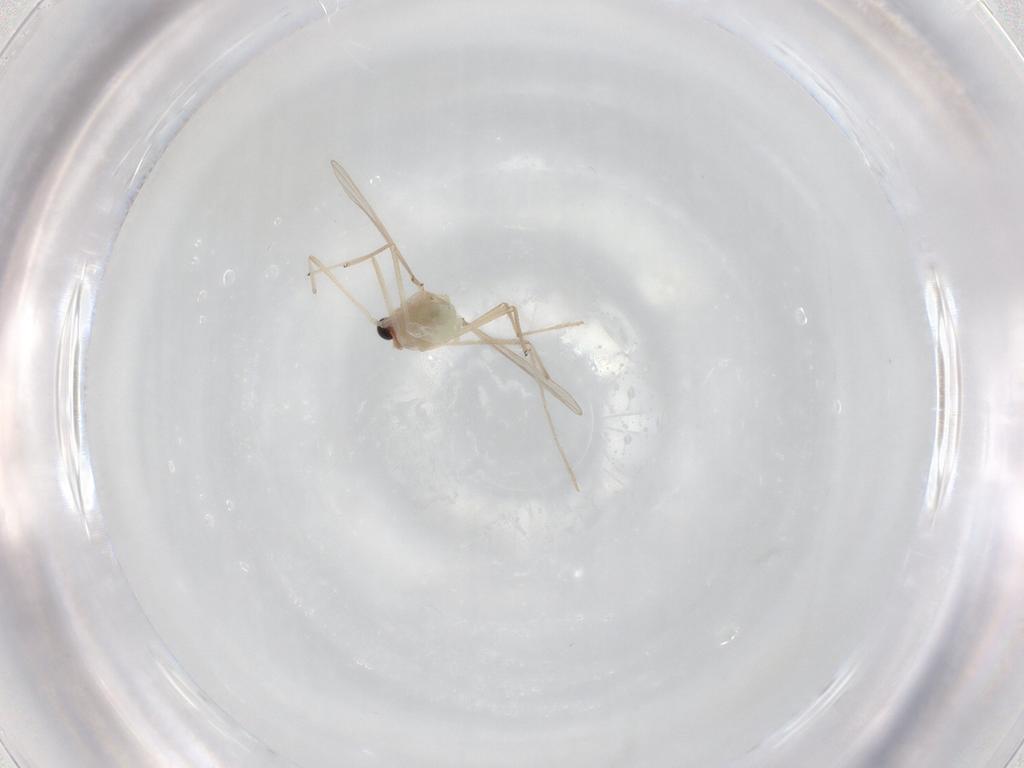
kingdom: Animalia
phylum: Arthropoda
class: Insecta
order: Diptera
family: Chironomidae
